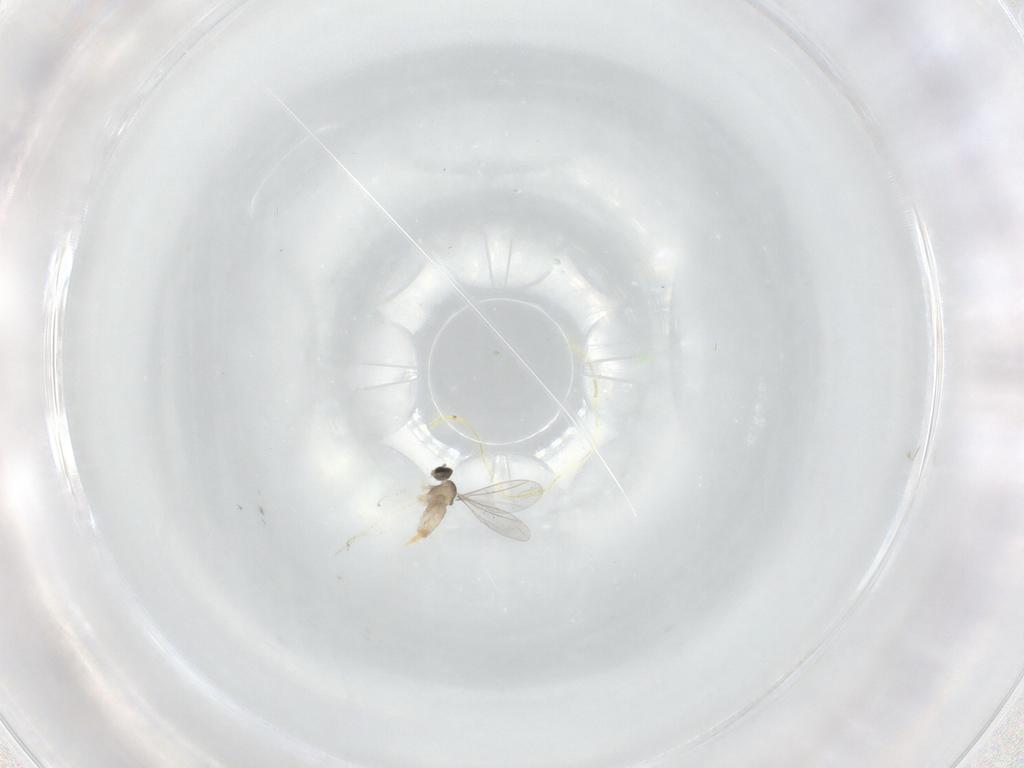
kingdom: Animalia
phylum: Arthropoda
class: Insecta
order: Diptera
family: Cecidomyiidae
